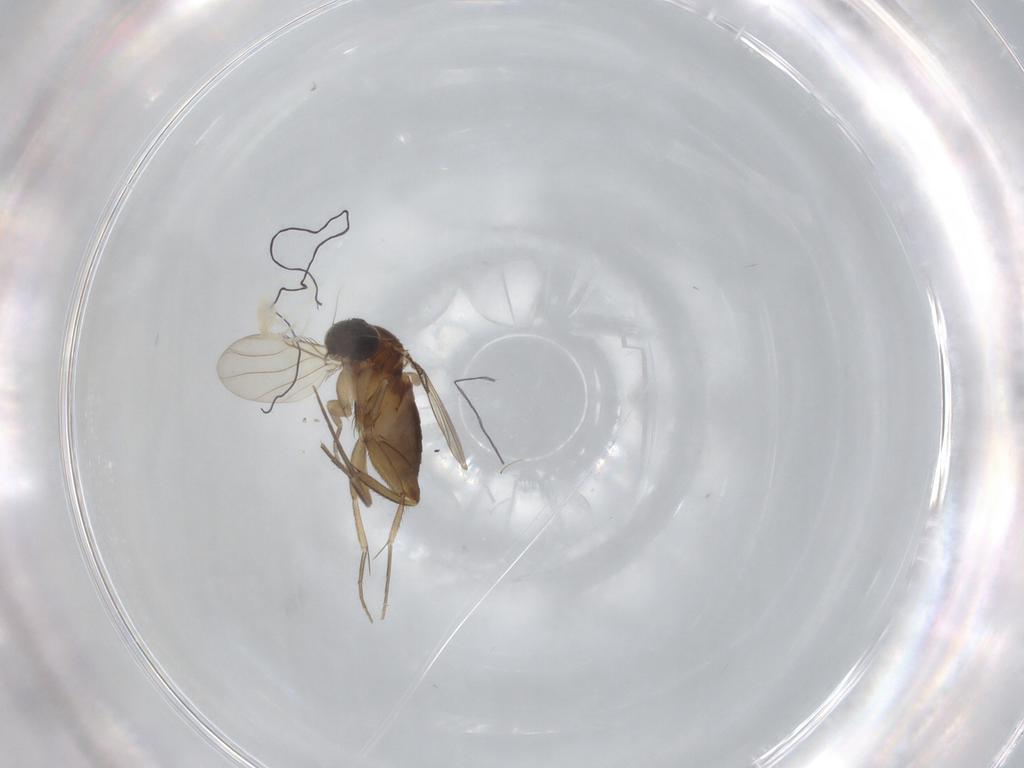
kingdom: Animalia
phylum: Arthropoda
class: Insecta
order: Diptera
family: Phoridae
